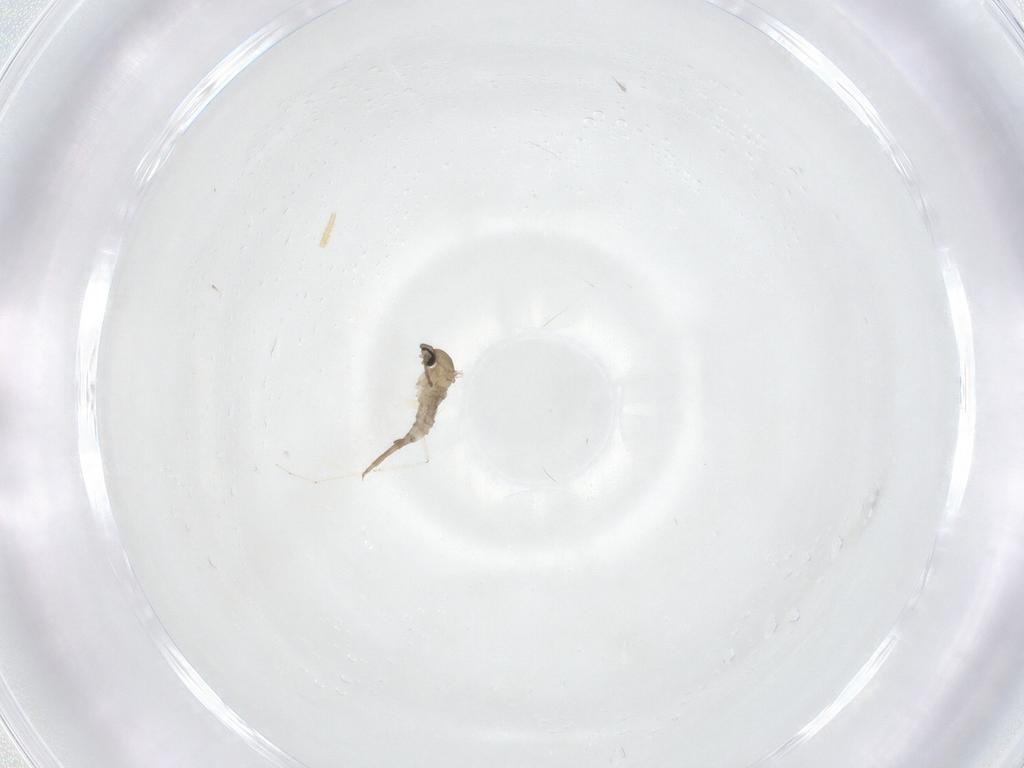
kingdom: Animalia
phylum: Arthropoda
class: Insecta
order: Diptera
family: Cecidomyiidae
